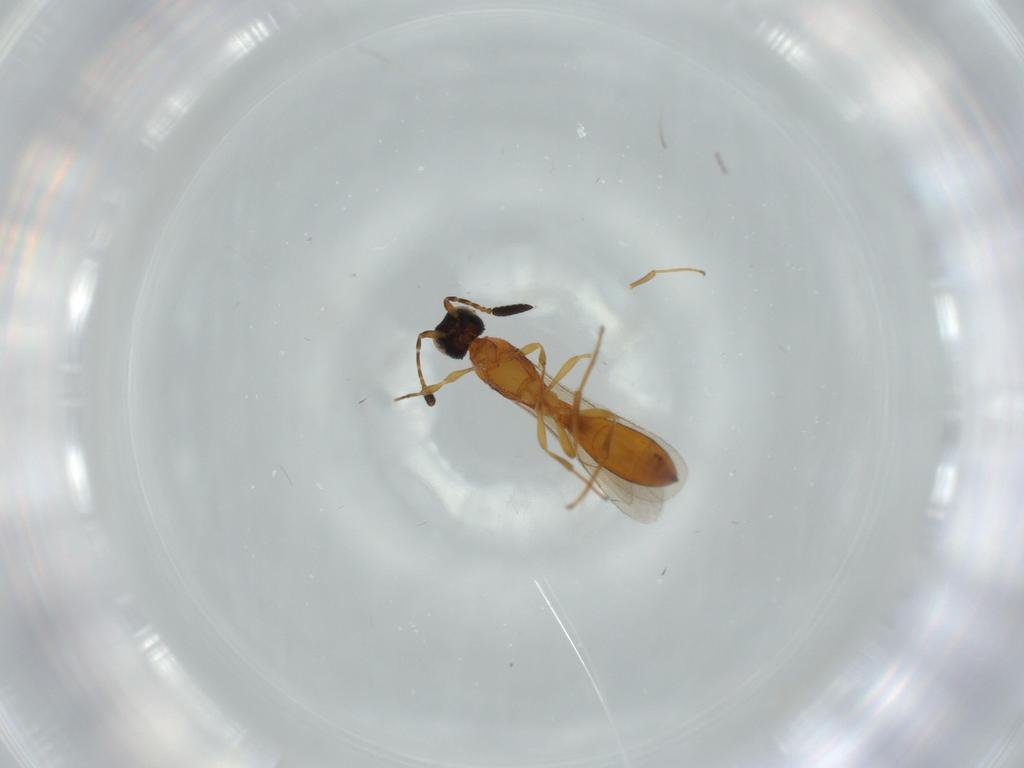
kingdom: Animalia
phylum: Arthropoda
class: Insecta
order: Hymenoptera
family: Scelionidae
